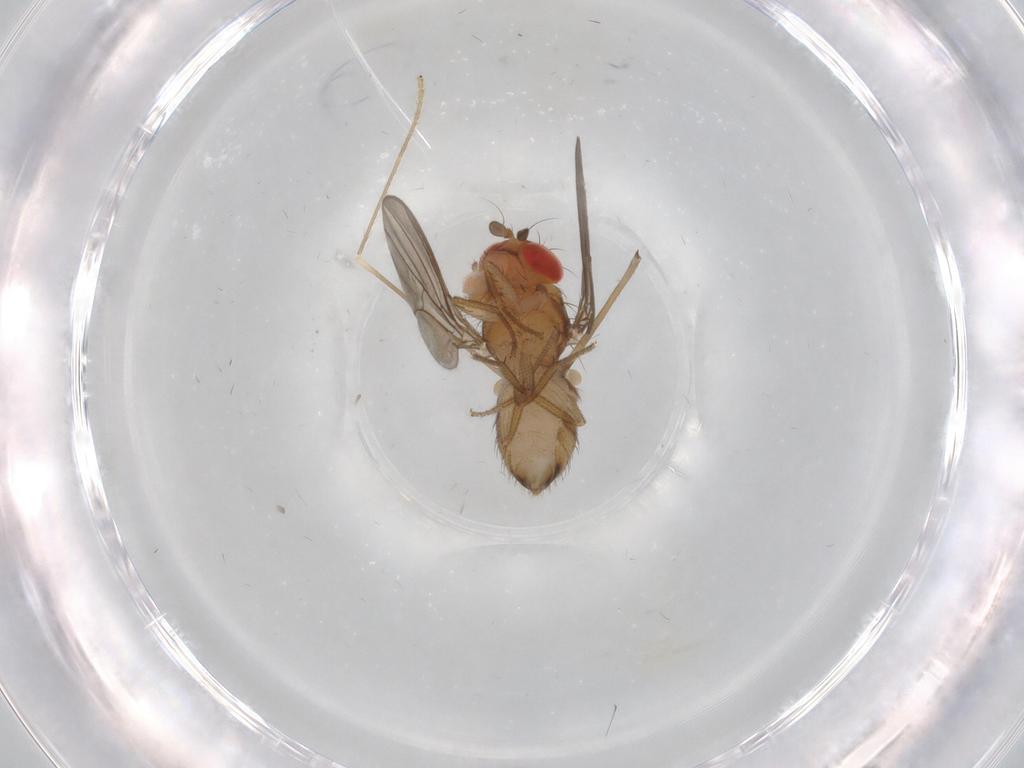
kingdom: Animalia
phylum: Arthropoda
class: Insecta
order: Diptera
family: Drosophilidae
